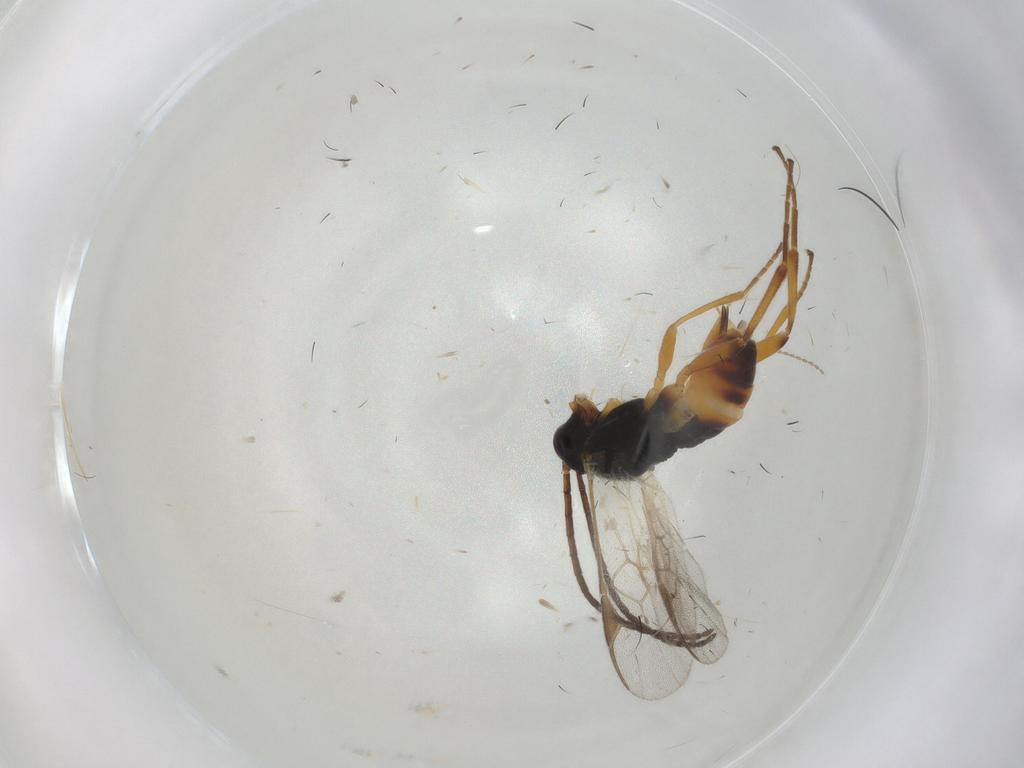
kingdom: Animalia
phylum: Arthropoda
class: Insecta
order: Hymenoptera
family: Braconidae
